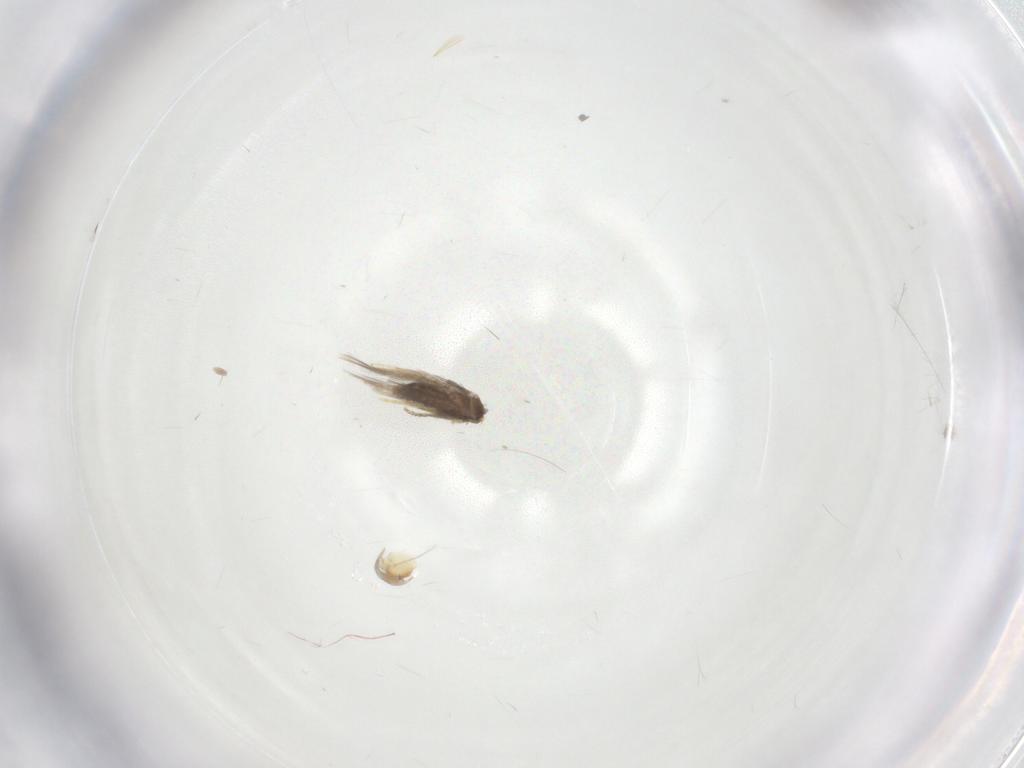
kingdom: Animalia
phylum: Arthropoda
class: Insecta
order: Lepidoptera
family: Nepticulidae
